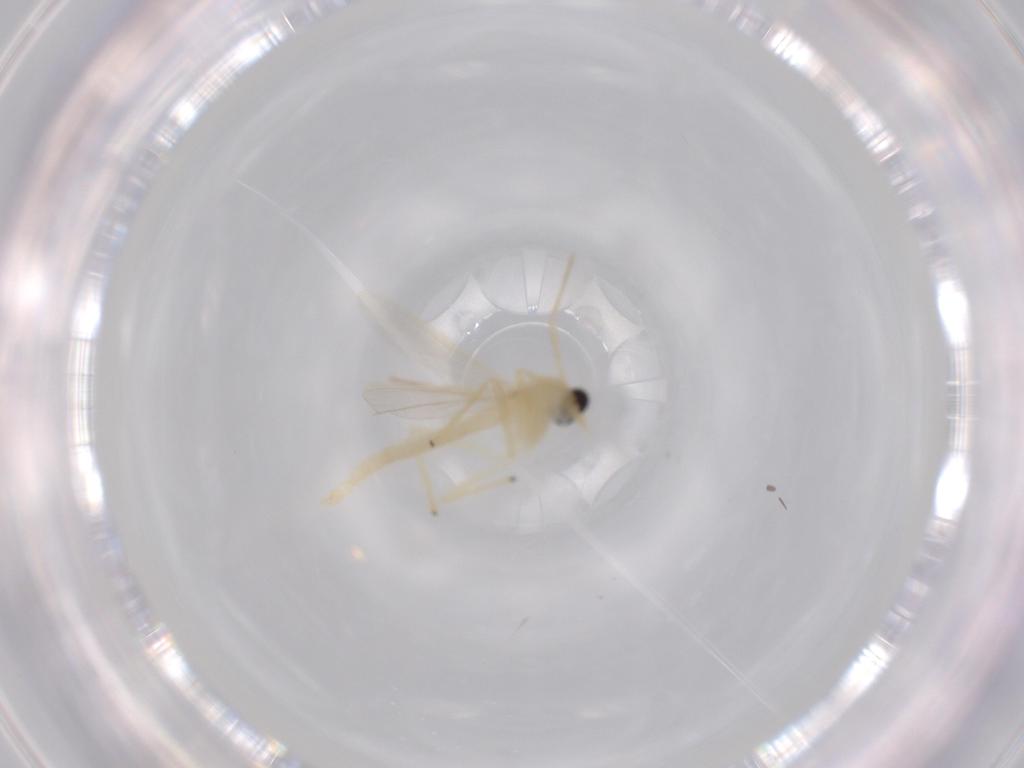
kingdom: Animalia
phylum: Arthropoda
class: Insecta
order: Diptera
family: Chironomidae
